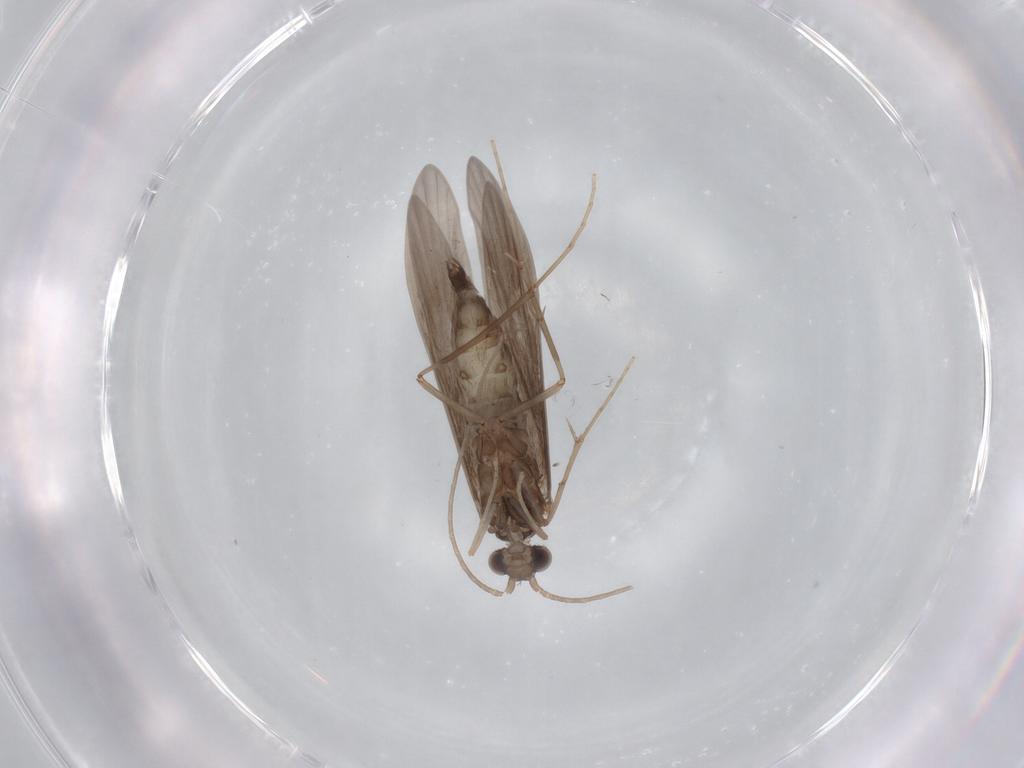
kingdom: Animalia
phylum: Arthropoda
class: Insecta
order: Trichoptera
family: Xiphocentronidae
